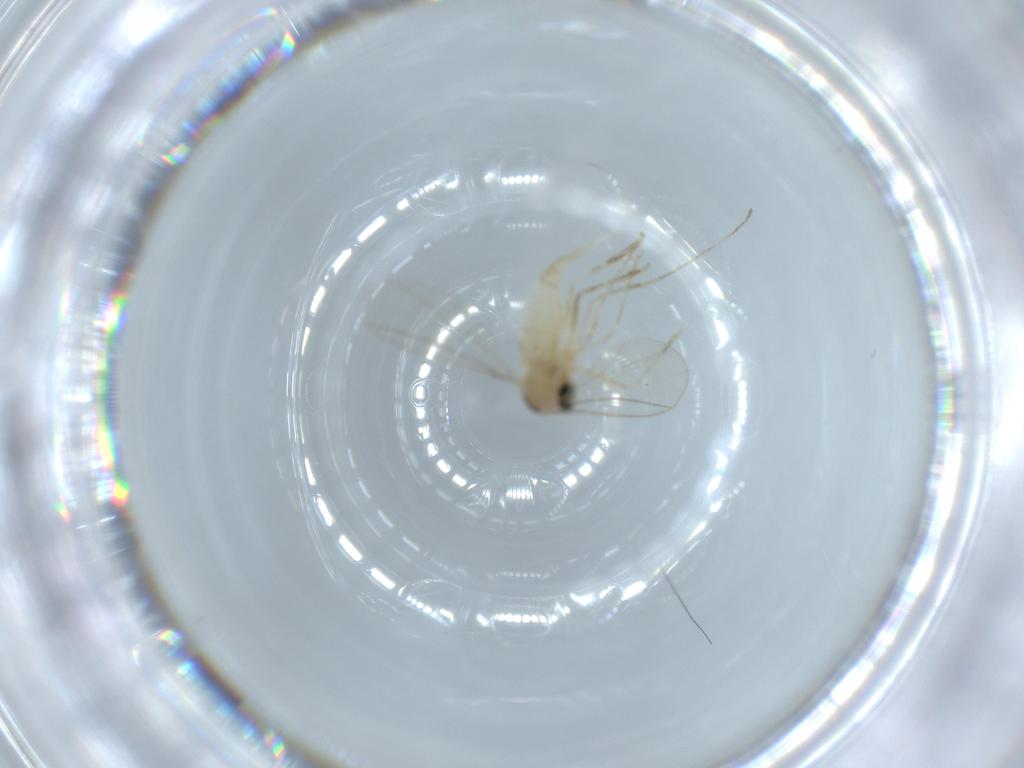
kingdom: Animalia
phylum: Arthropoda
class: Insecta
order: Diptera
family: Cecidomyiidae
